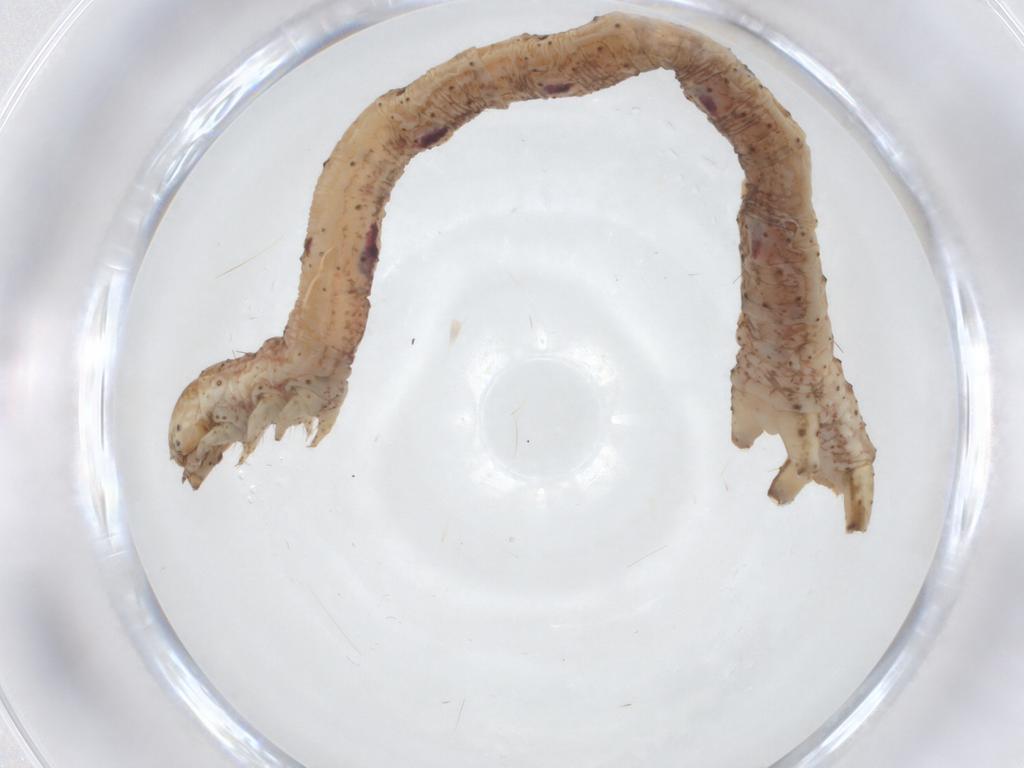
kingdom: Animalia
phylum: Arthropoda
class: Insecta
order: Lepidoptera
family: Geometridae
